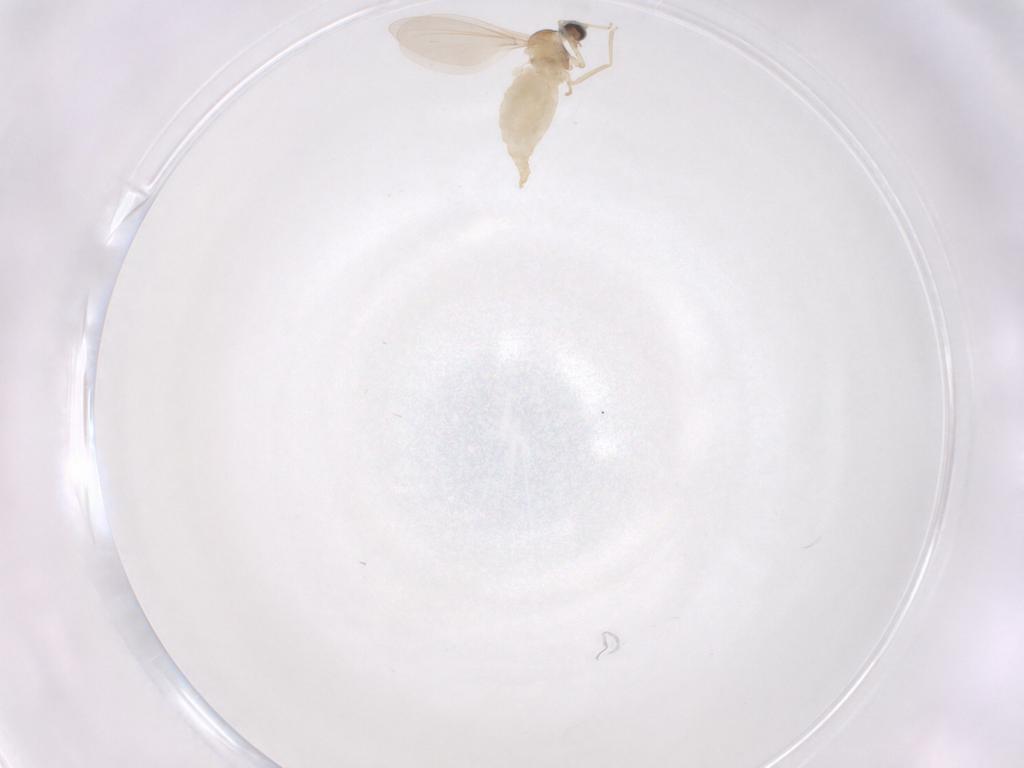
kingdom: Animalia
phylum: Arthropoda
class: Insecta
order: Diptera
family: Cecidomyiidae
